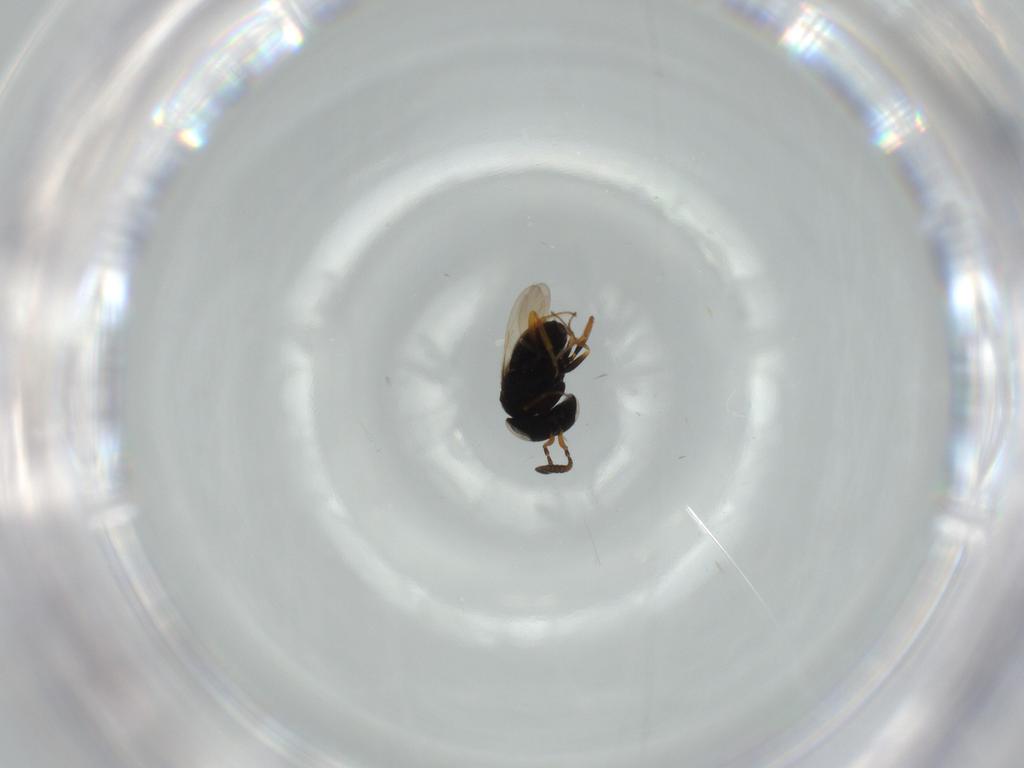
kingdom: Animalia
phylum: Arthropoda
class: Insecta
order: Hymenoptera
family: Scelionidae
